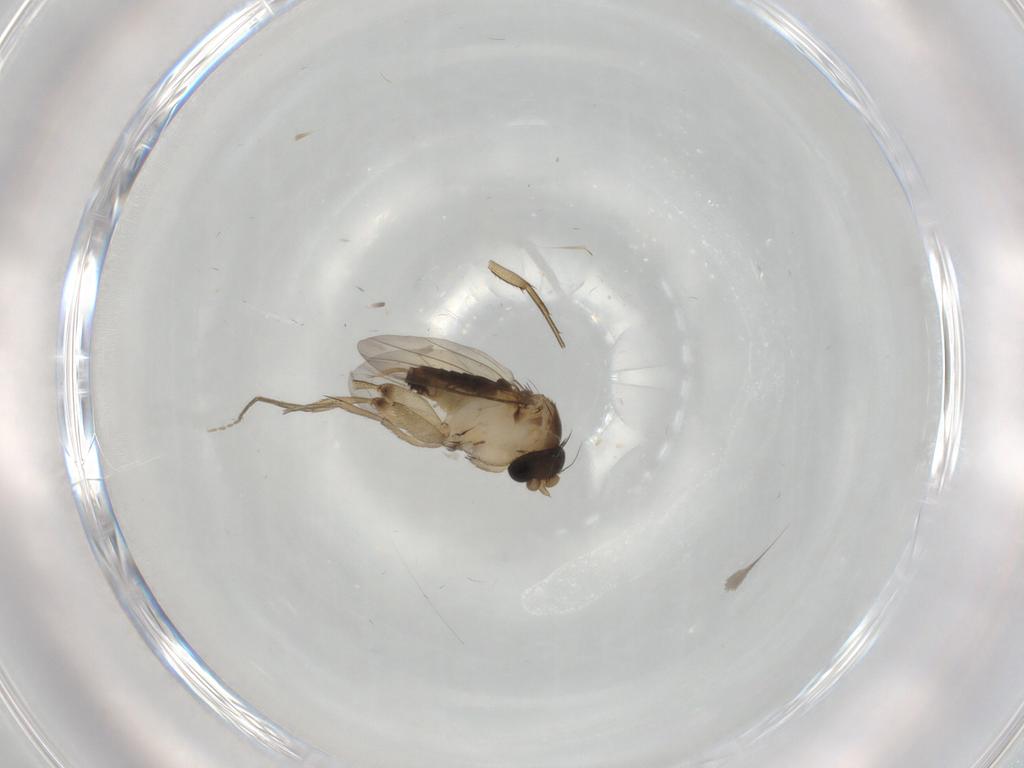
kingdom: Animalia
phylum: Arthropoda
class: Insecta
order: Diptera
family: Phoridae
